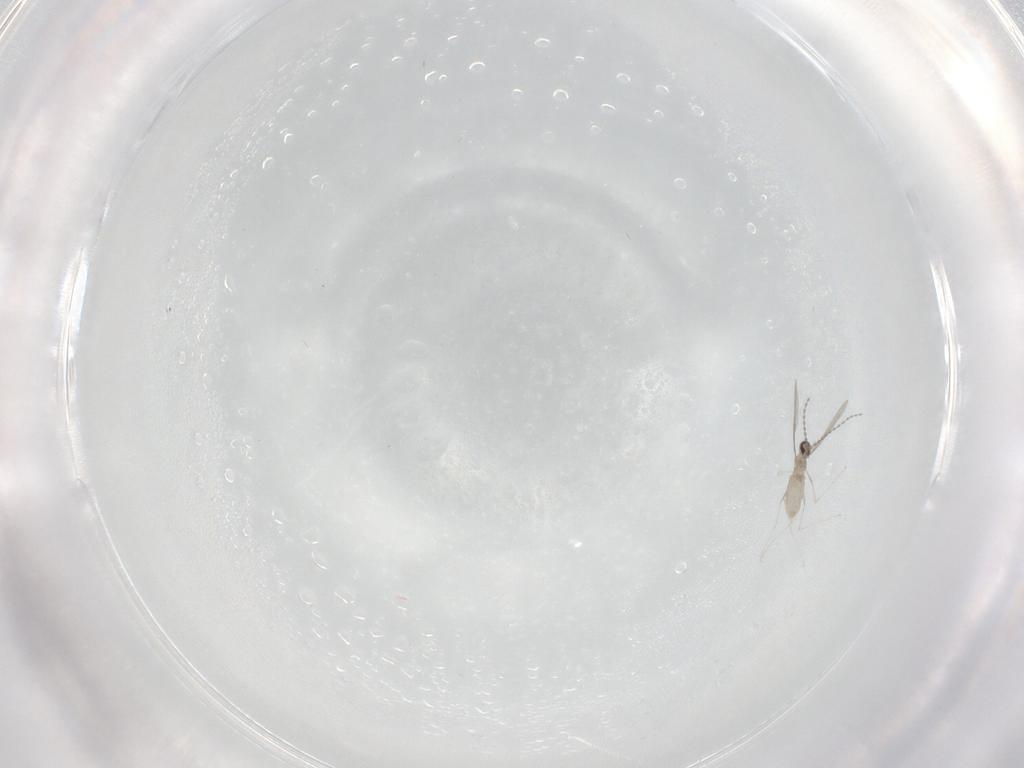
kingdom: Animalia
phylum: Arthropoda
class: Insecta
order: Diptera
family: Cecidomyiidae
